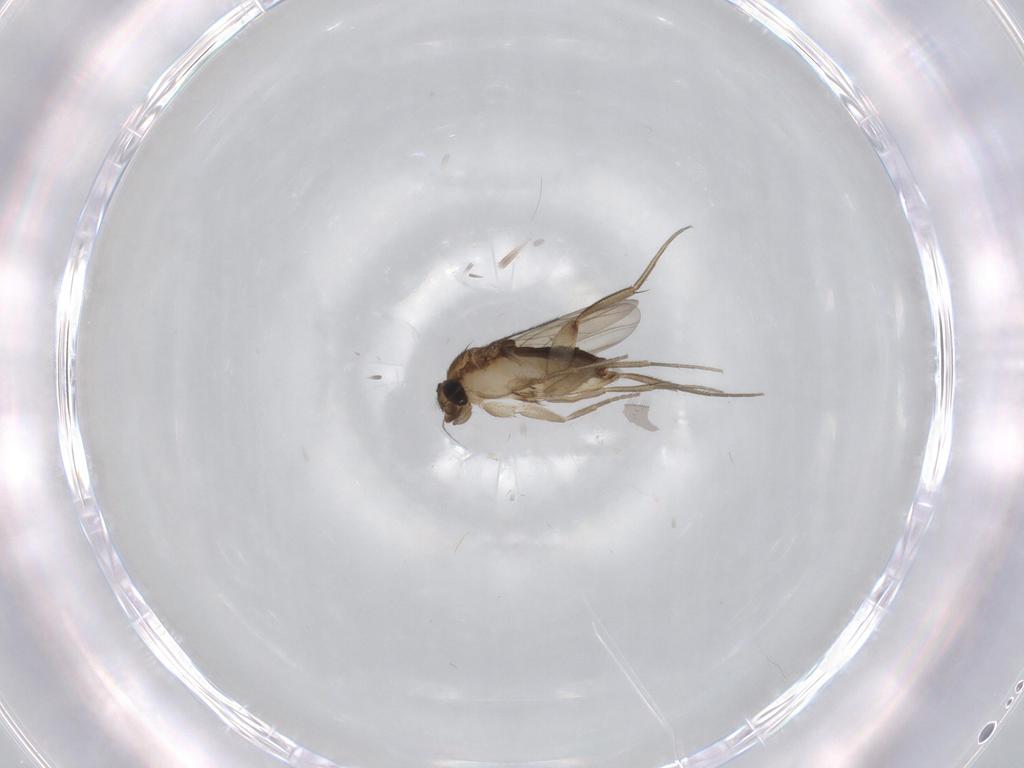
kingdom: Animalia
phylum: Arthropoda
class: Insecta
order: Diptera
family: Phoridae
